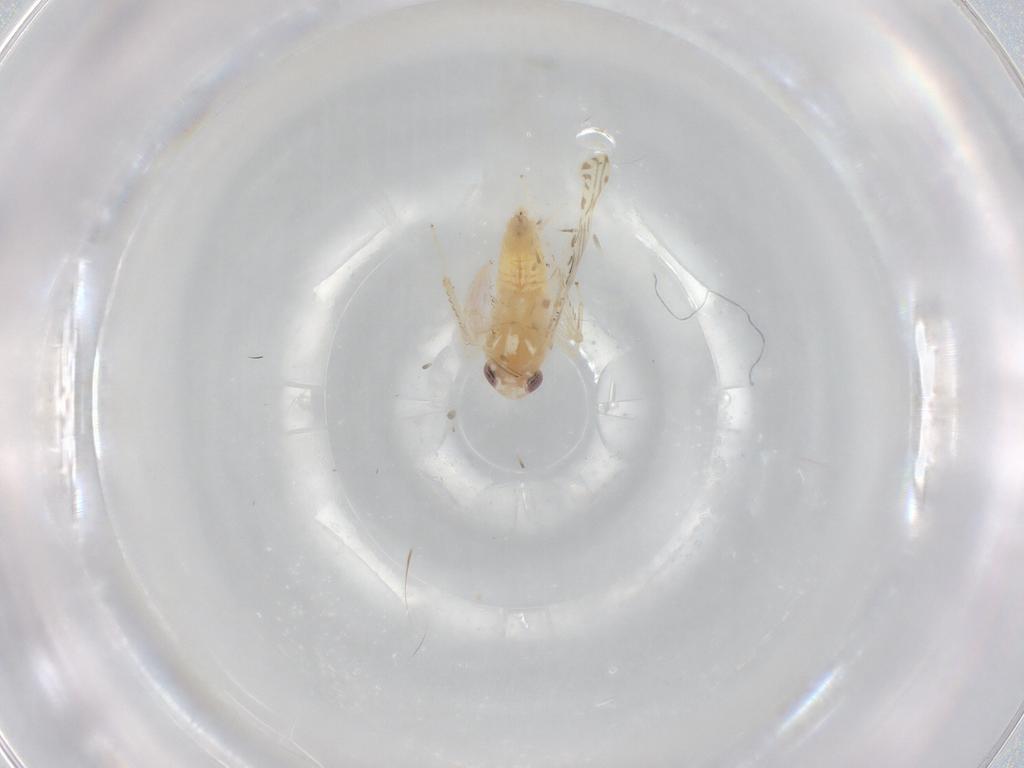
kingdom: Animalia
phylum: Arthropoda
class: Insecta
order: Hemiptera
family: Cicadellidae
